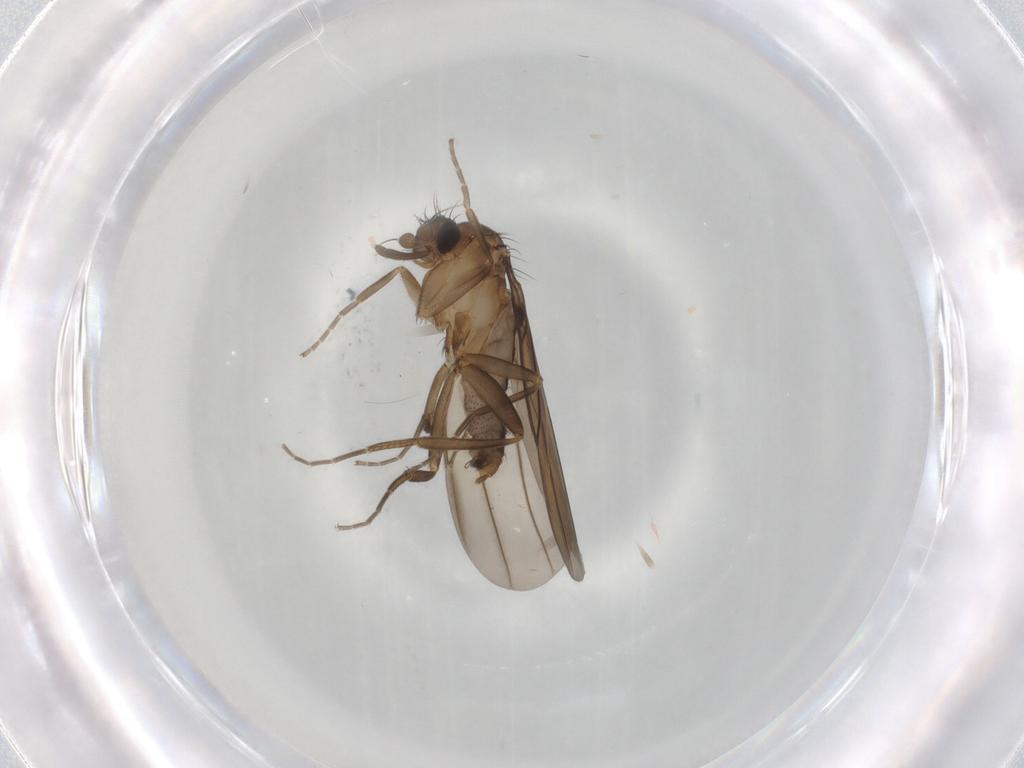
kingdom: Animalia
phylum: Arthropoda
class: Insecta
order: Diptera
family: Phoridae
